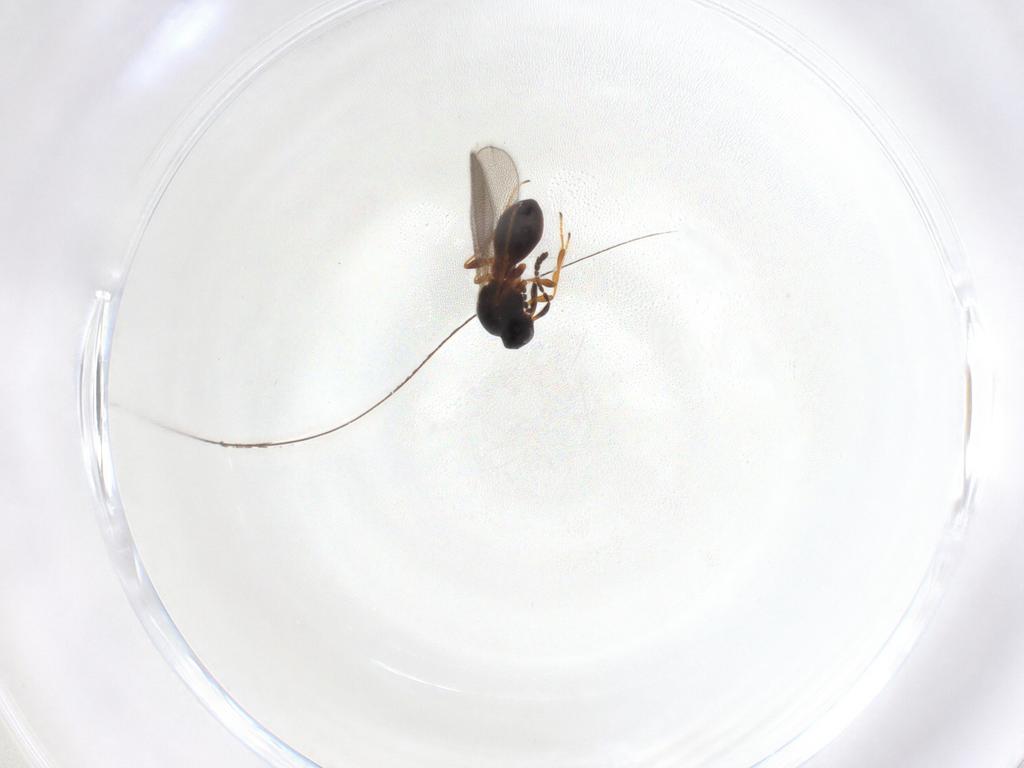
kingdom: Animalia
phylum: Arthropoda
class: Insecta
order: Hymenoptera
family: Platygastridae
